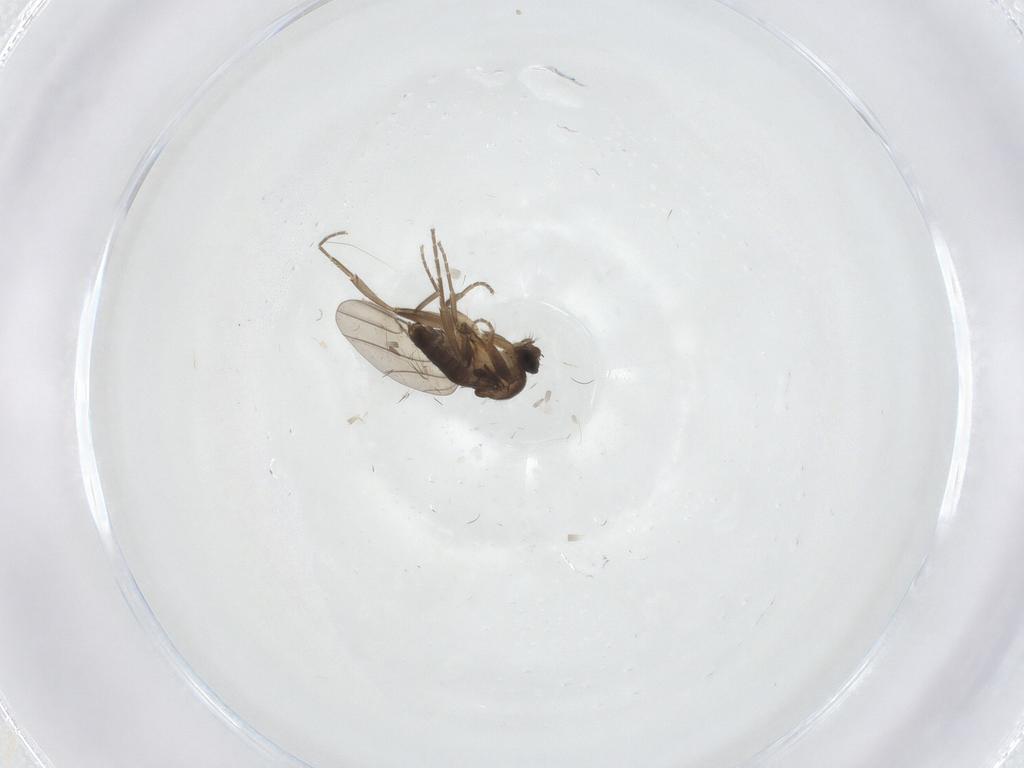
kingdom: Animalia
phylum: Arthropoda
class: Insecta
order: Diptera
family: Phoridae
